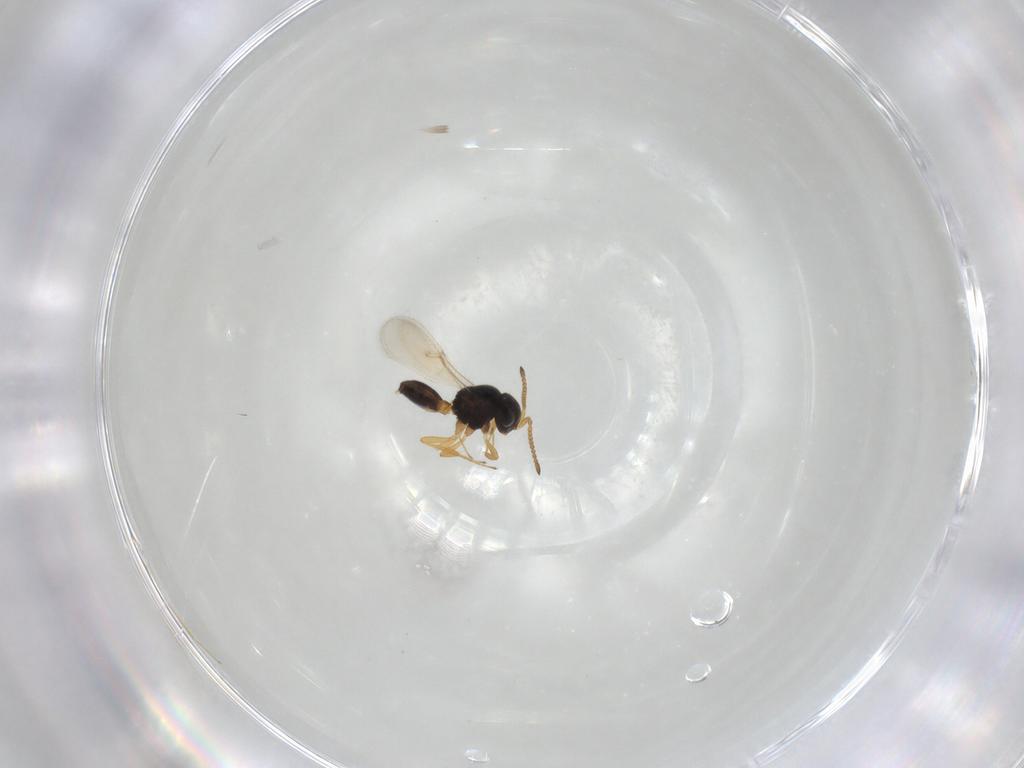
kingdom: Animalia
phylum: Arthropoda
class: Insecta
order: Hymenoptera
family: Scelionidae
